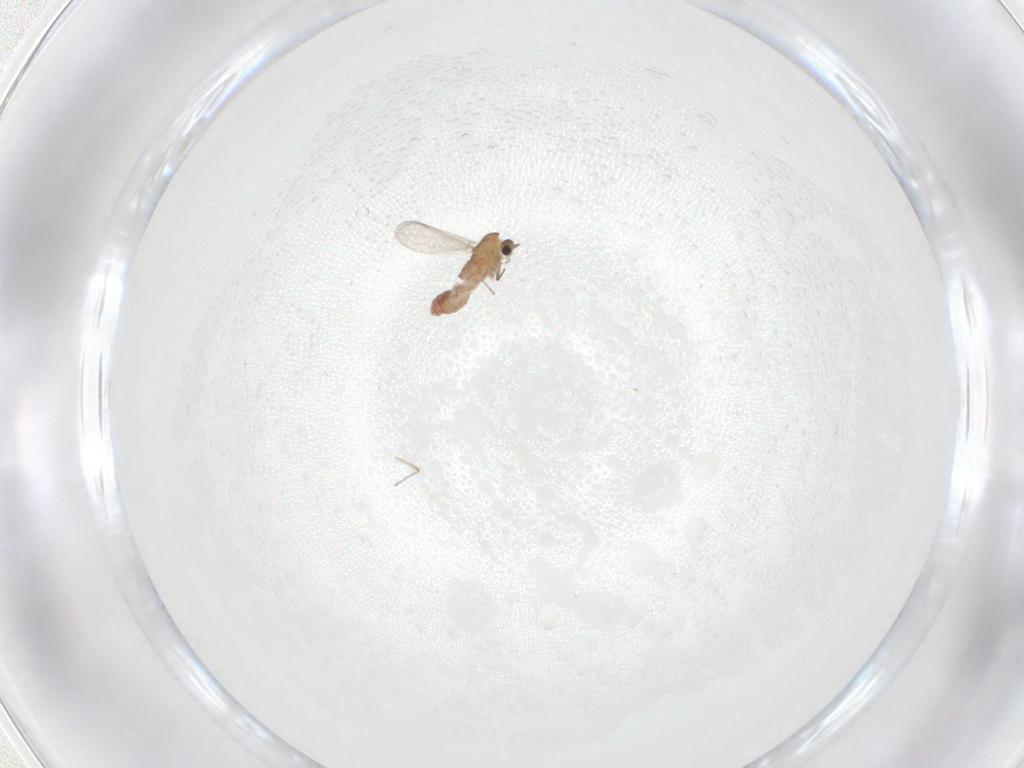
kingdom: Animalia
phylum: Arthropoda
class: Insecta
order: Diptera
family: Chironomidae
